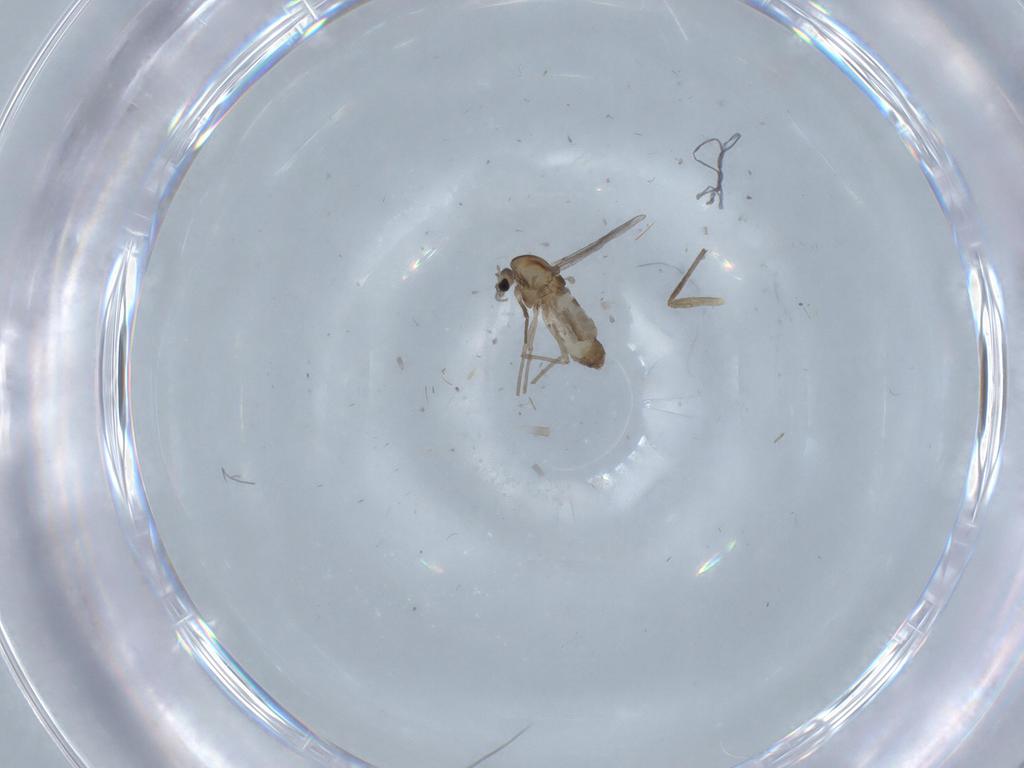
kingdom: Animalia
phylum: Arthropoda
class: Insecta
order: Diptera
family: Chironomidae
